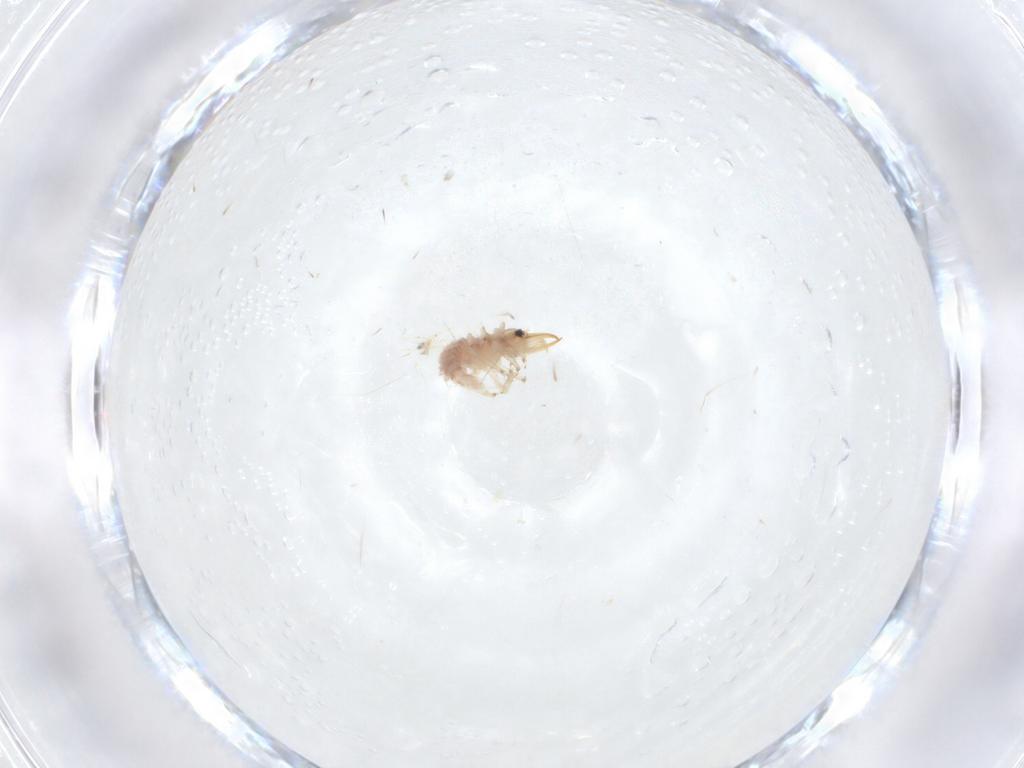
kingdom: Animalia
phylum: Arthropoda
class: Insecta
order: Neuroptera
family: Chrysopidae
